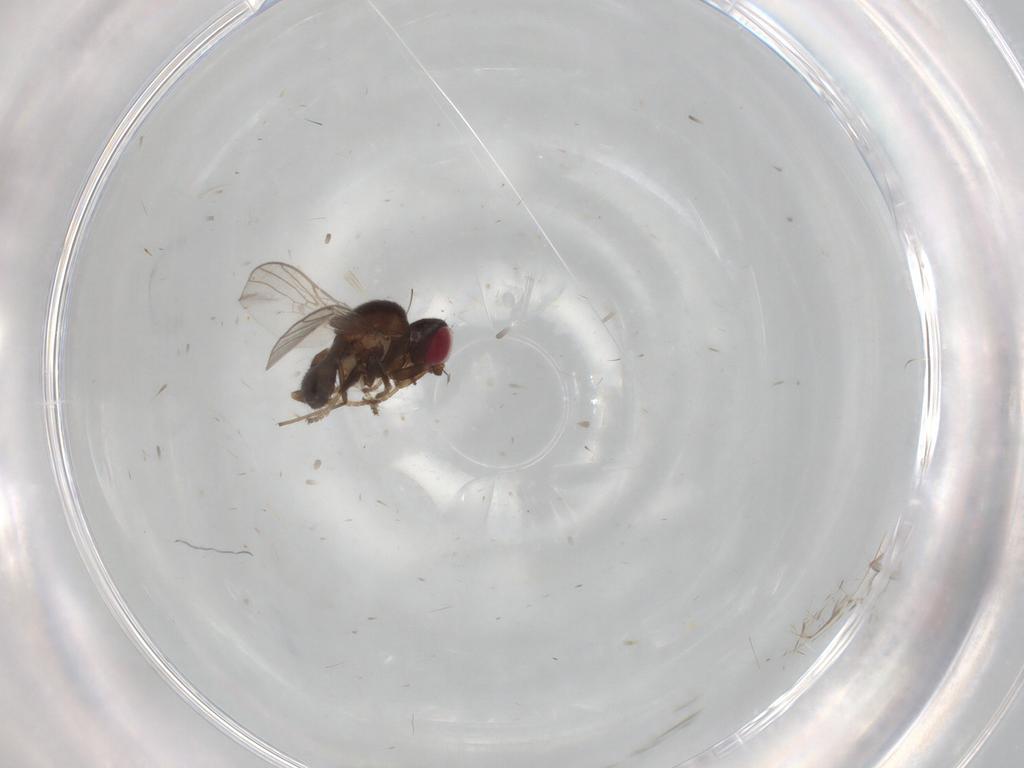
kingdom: Animalia
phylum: Arthropoda
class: Insecta
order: Diptera
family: Chloropidae
